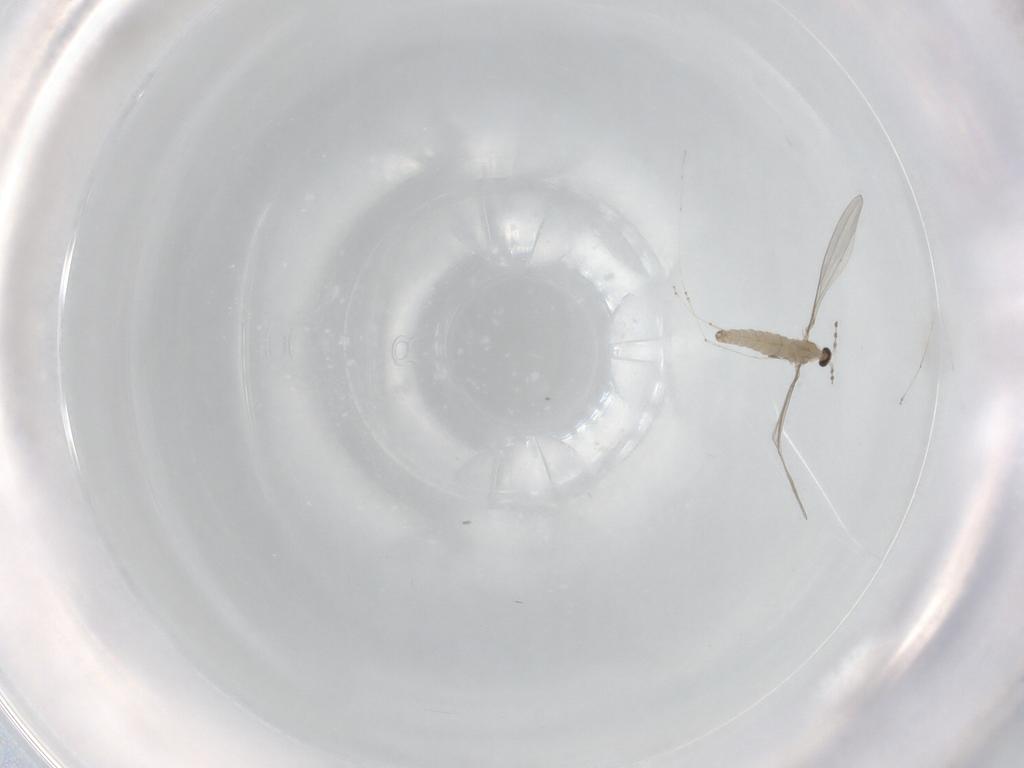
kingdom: Animalia
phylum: Arthropoda
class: Insecta
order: Diptera
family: Cecidomyiidae
